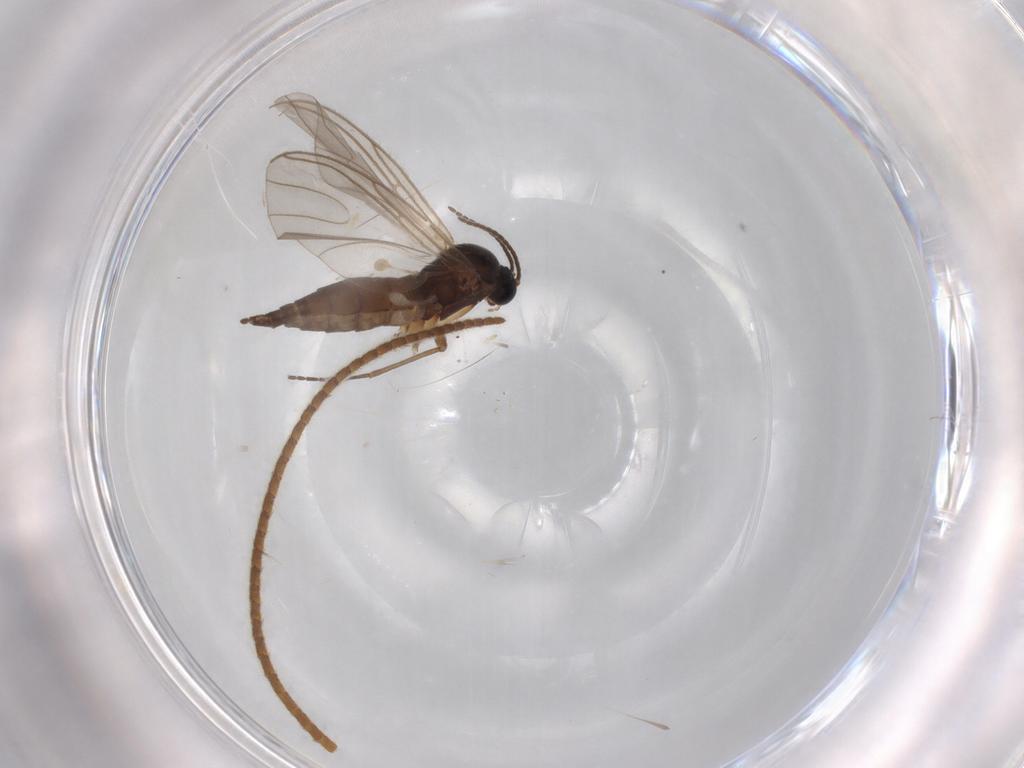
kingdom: Animalia
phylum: Arthropoda
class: Insecta
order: Diptera
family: Sciaridae
